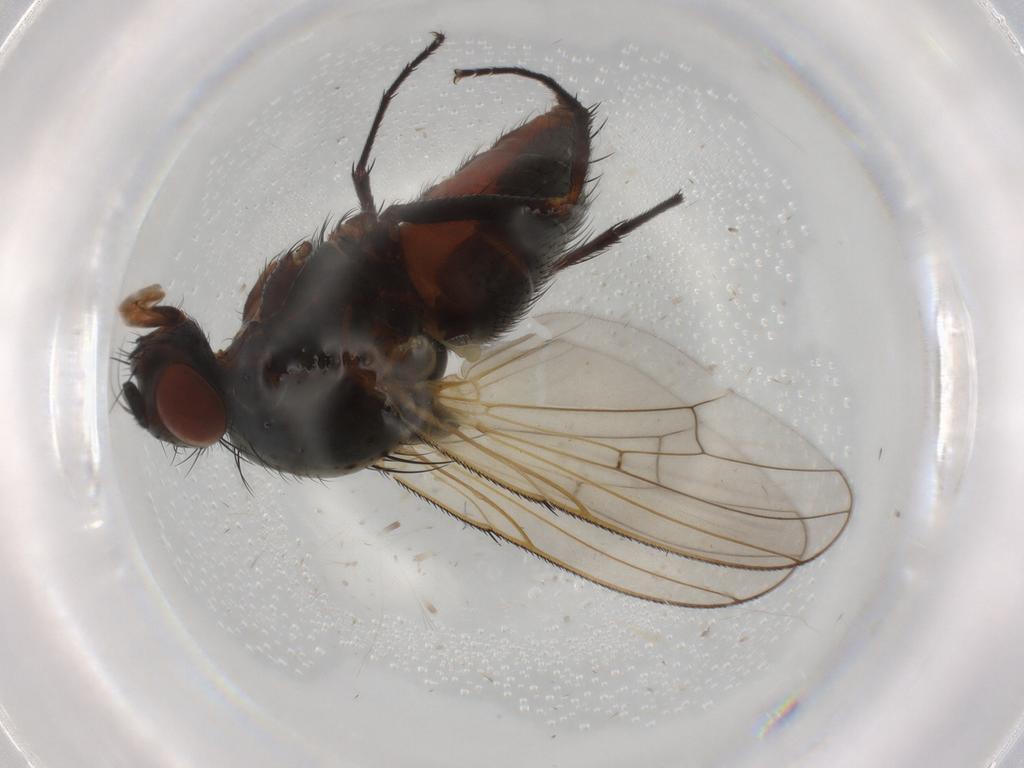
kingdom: Animalia
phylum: Arthropoda
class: Insecta
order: Diptera
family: Anthomyiidae
